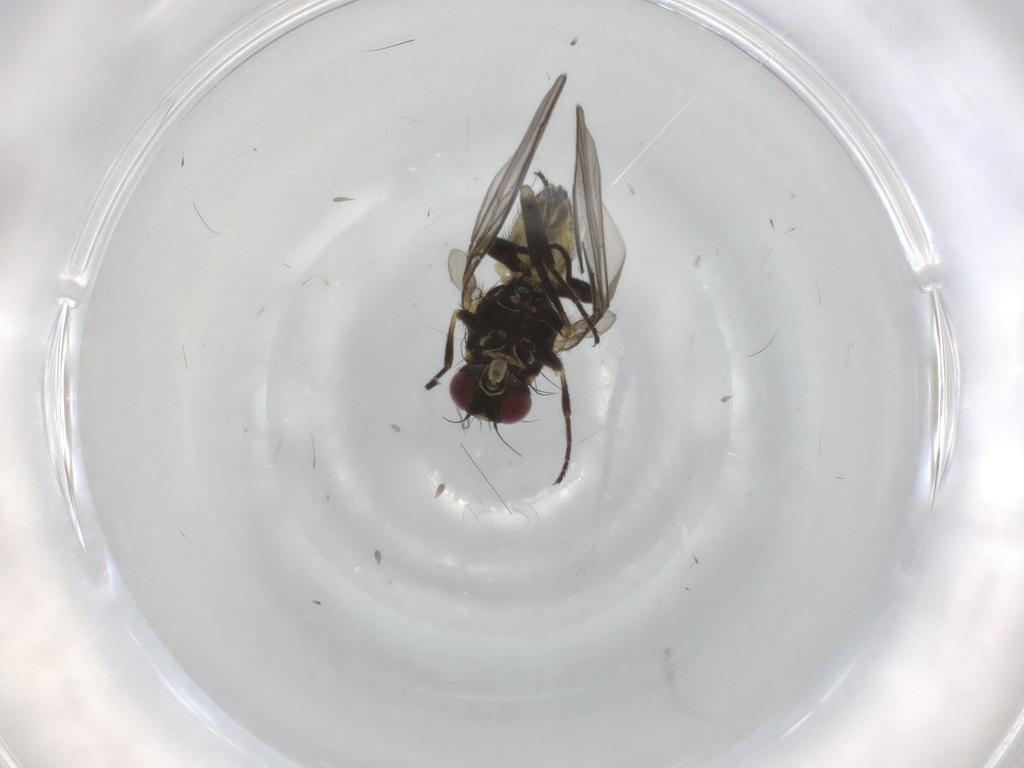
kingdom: Animalia
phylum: Arthropoda
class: Insecta
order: Diptera
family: Agromyzidae
